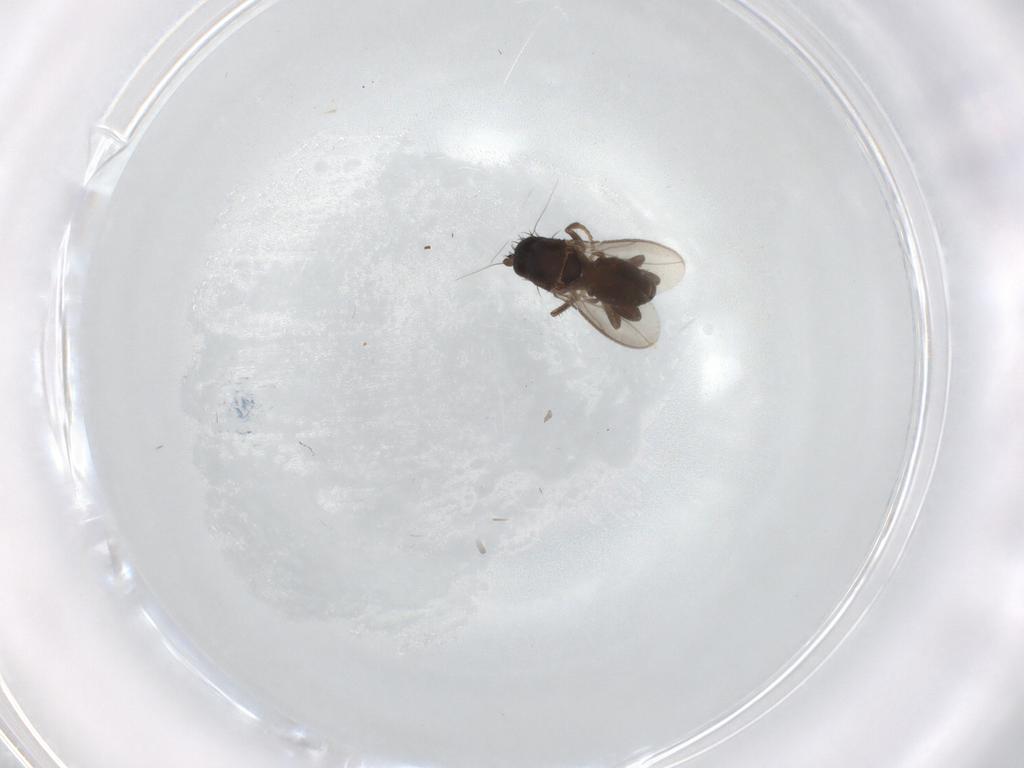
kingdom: Animalia
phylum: Arthropoda
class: Insecta
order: Diptera
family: Sphaeroceridae
